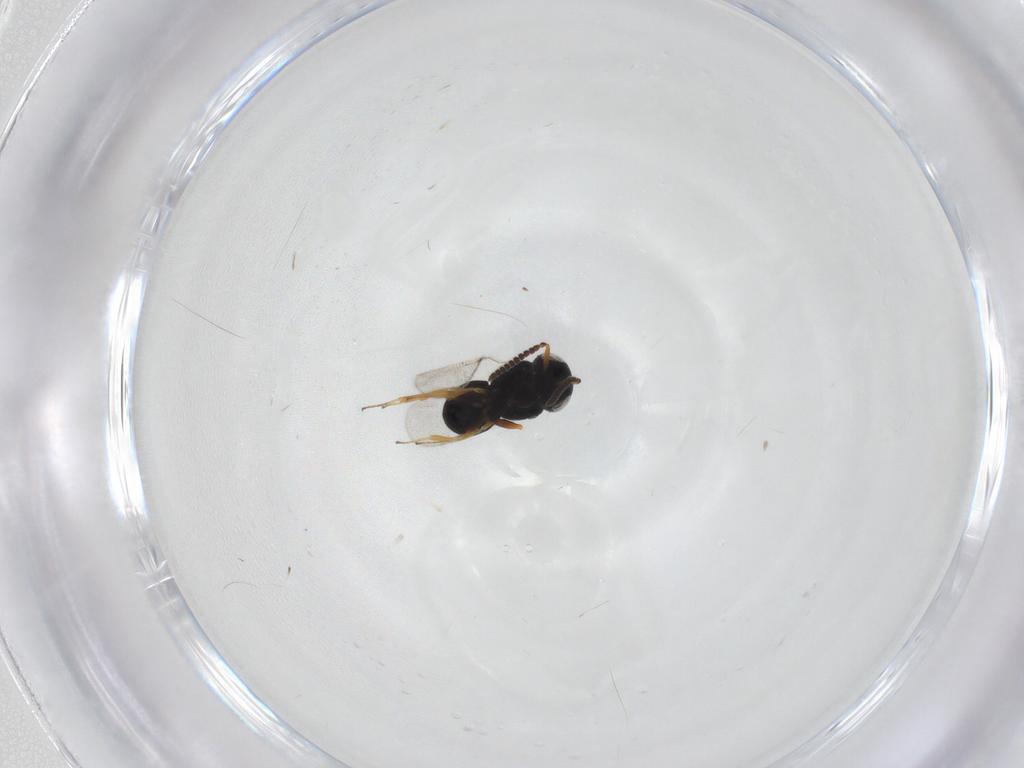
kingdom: Animalia
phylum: Arthropoda
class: Insecta
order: Hymenoptera
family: Scelionidae
